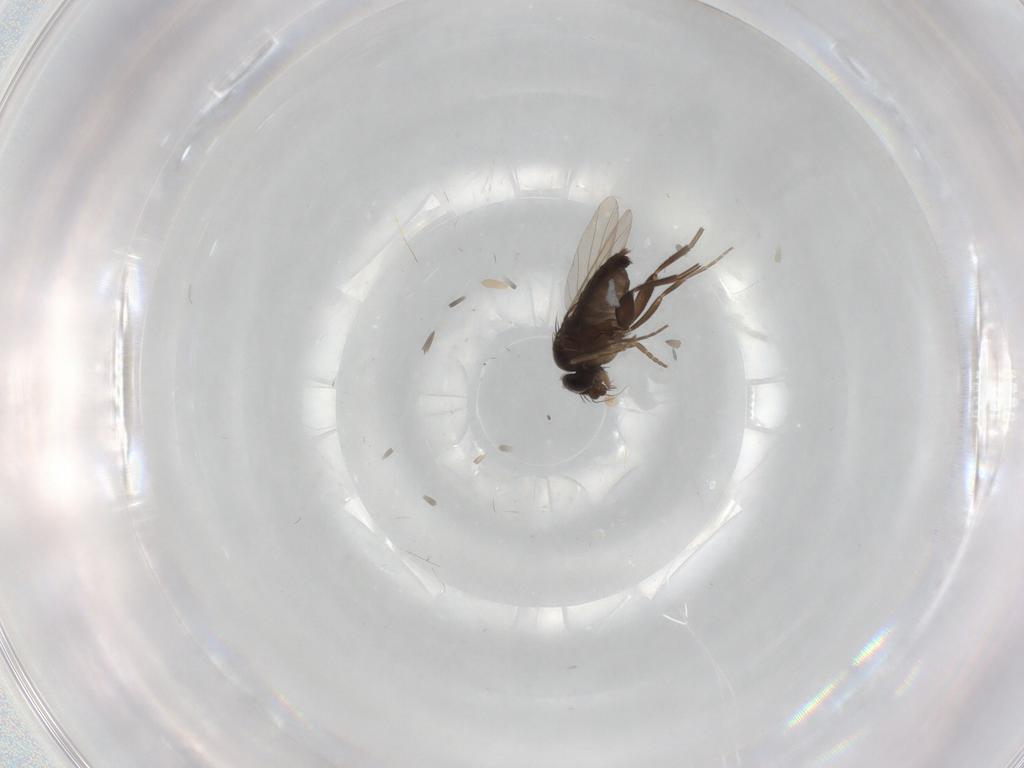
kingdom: Animalia
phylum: Arthropoda
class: Insecta
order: Diptera
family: Phoridae
